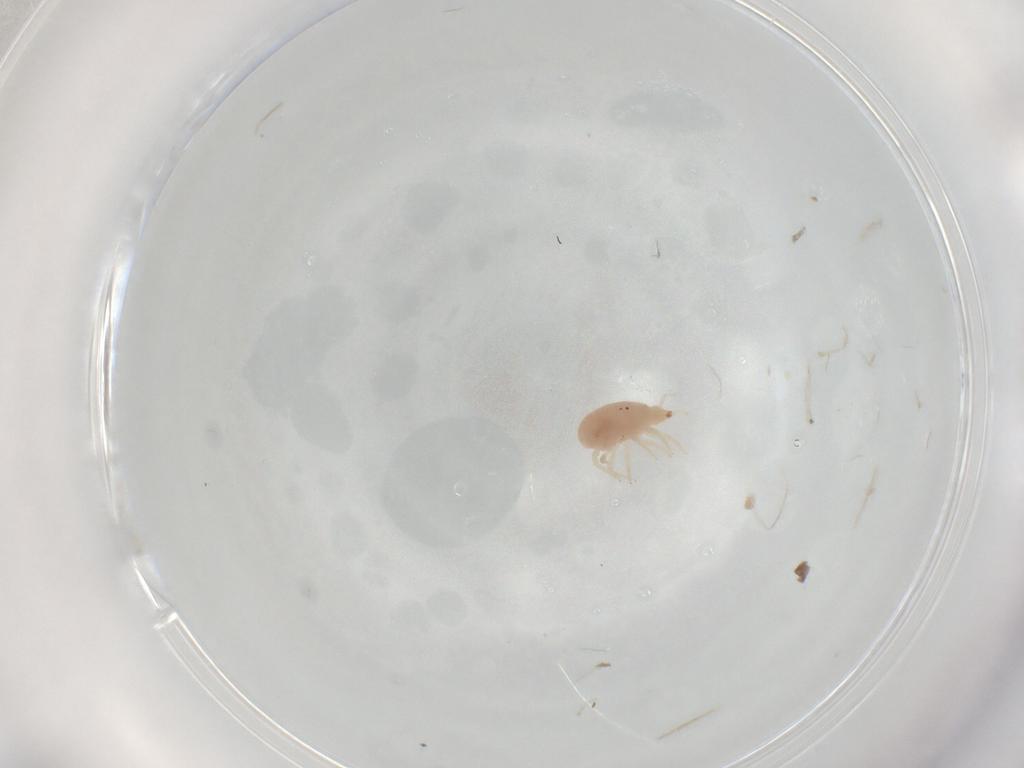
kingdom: Animalia
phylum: Arthropoda
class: Arachnida
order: Trombidiformes
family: Bdellidae
